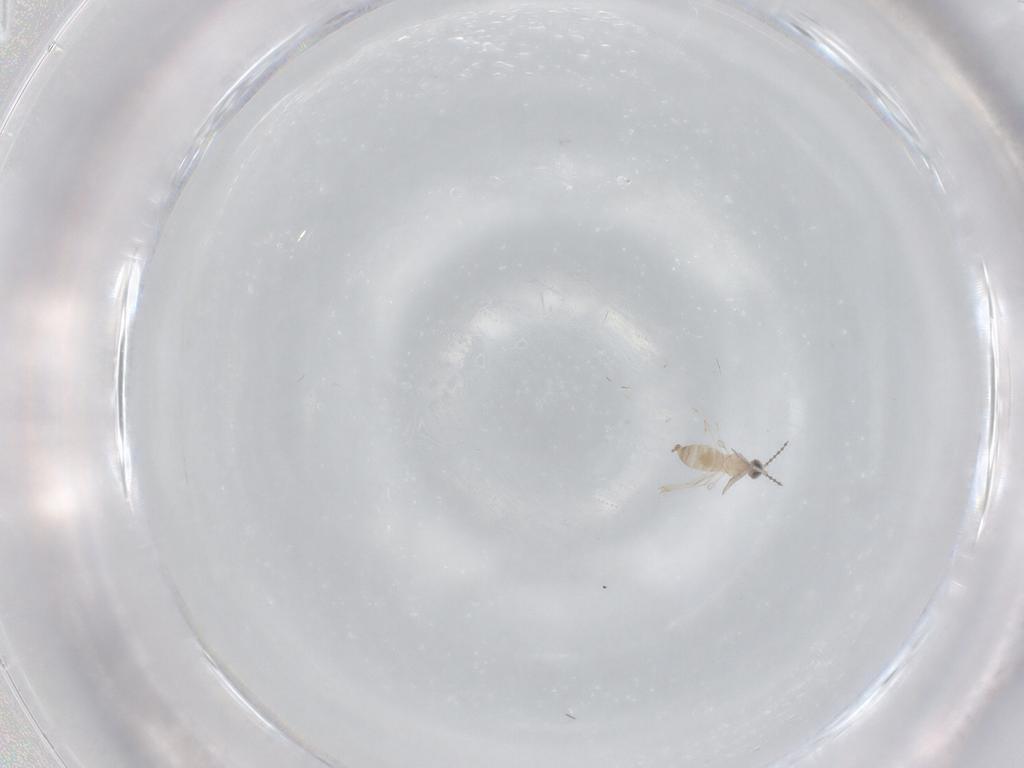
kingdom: Animalia
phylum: Arthropoda
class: Insecta
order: Diptera
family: Cecidomyiidae
